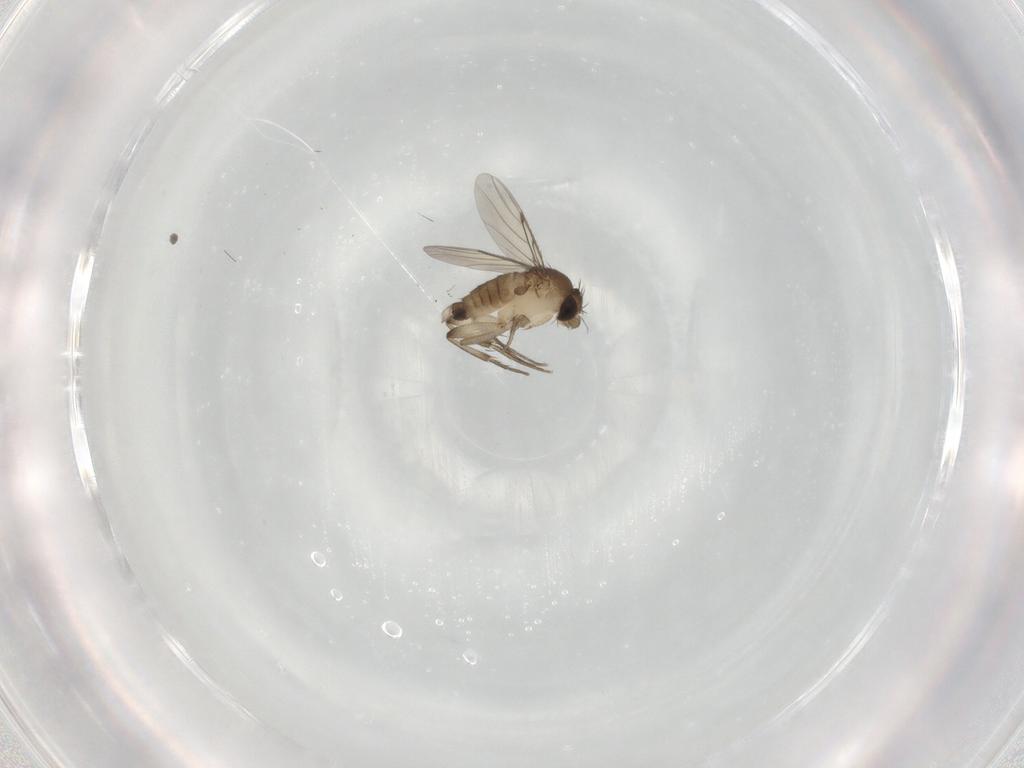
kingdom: Animalia
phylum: Arthropoda
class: Insecta
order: Diptera
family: Phoridae
